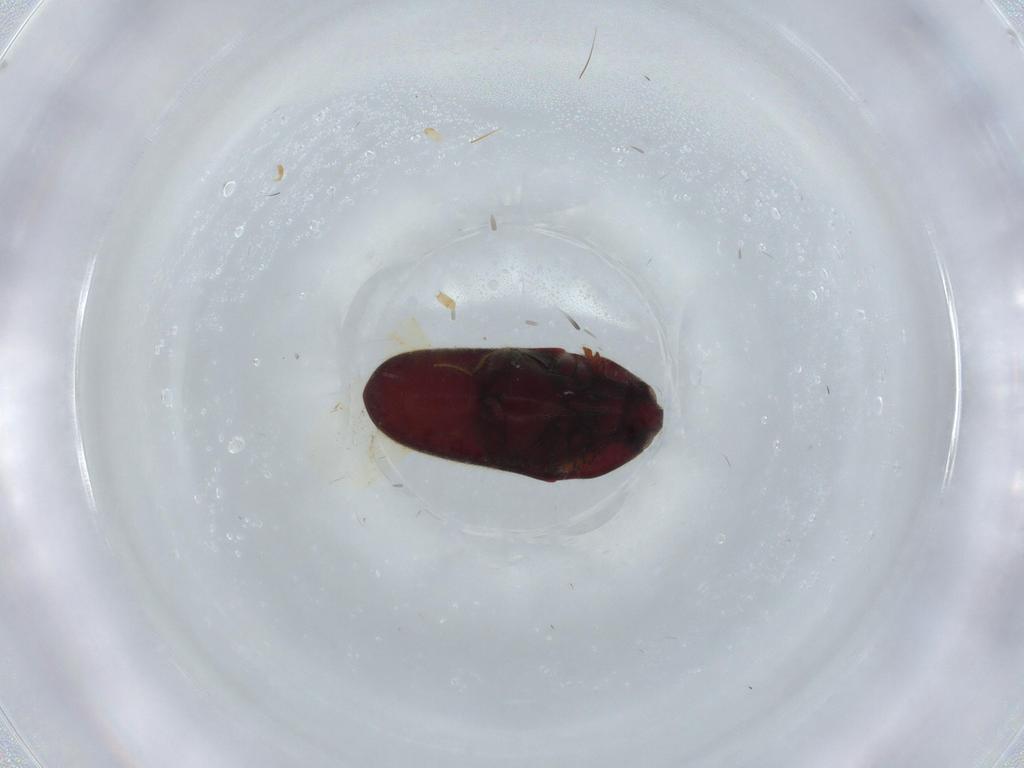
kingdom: Animalia
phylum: Arthropoda
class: Insecta
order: Coleoptera
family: Throscidae
